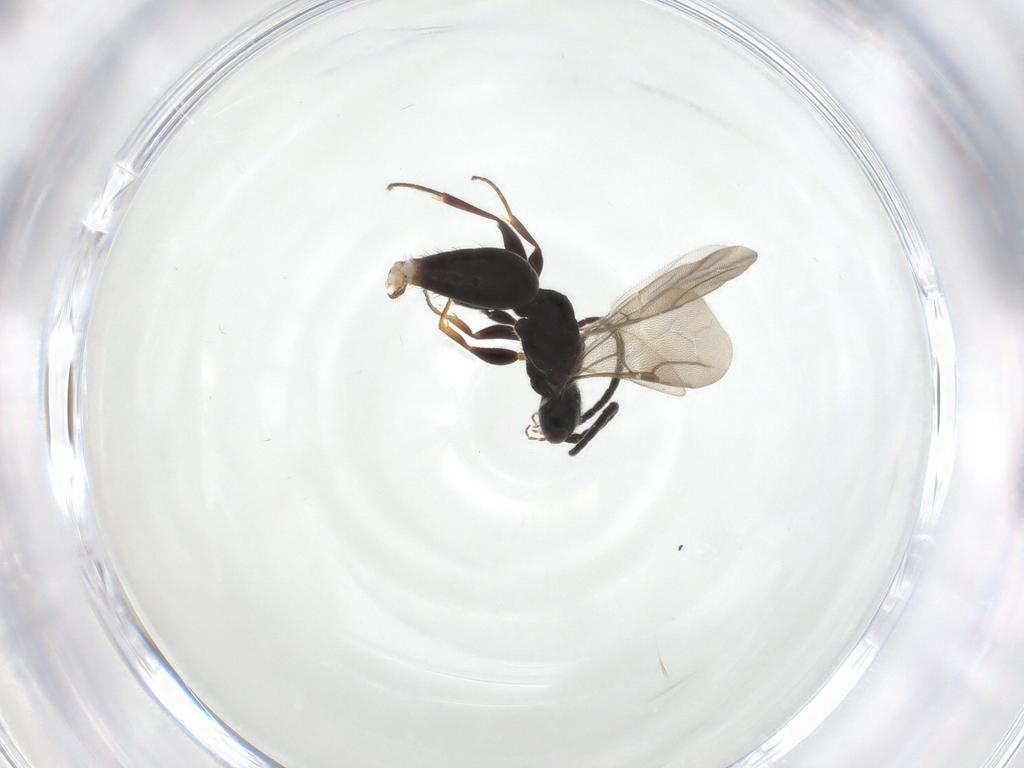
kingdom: Animalia
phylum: Arthropoda
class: Insecta
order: Hymenoptera
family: Bethylidae
